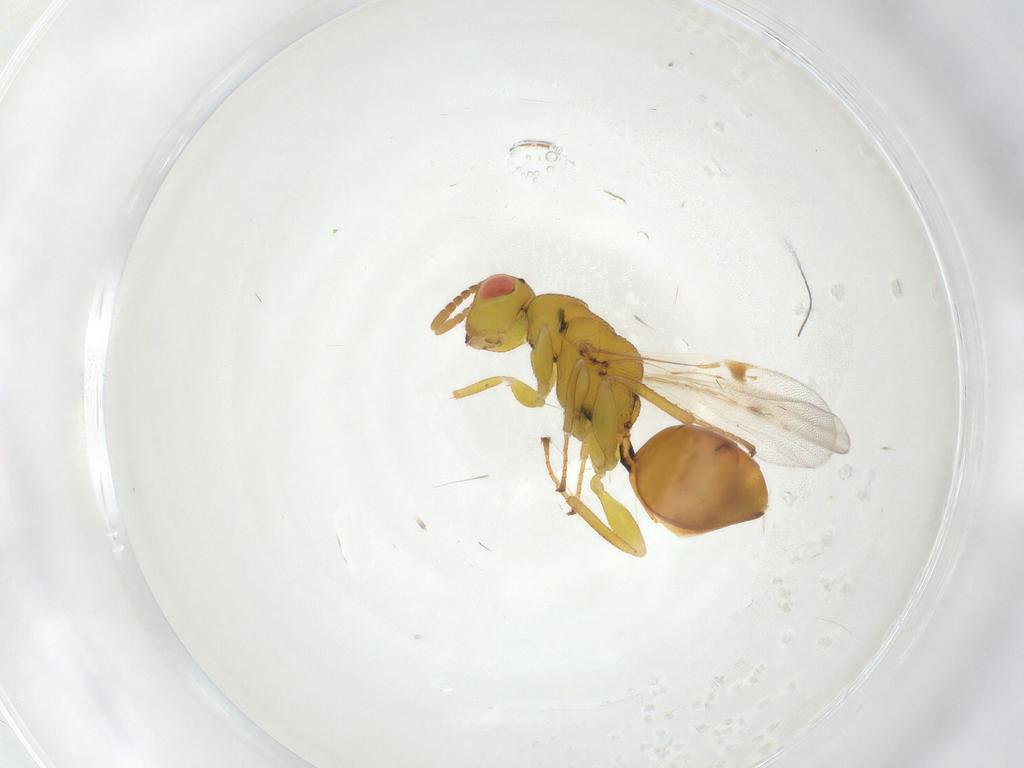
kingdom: Animalia
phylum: Arthropoda
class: Insecta
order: Hymenoptera
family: Eurytomidae
